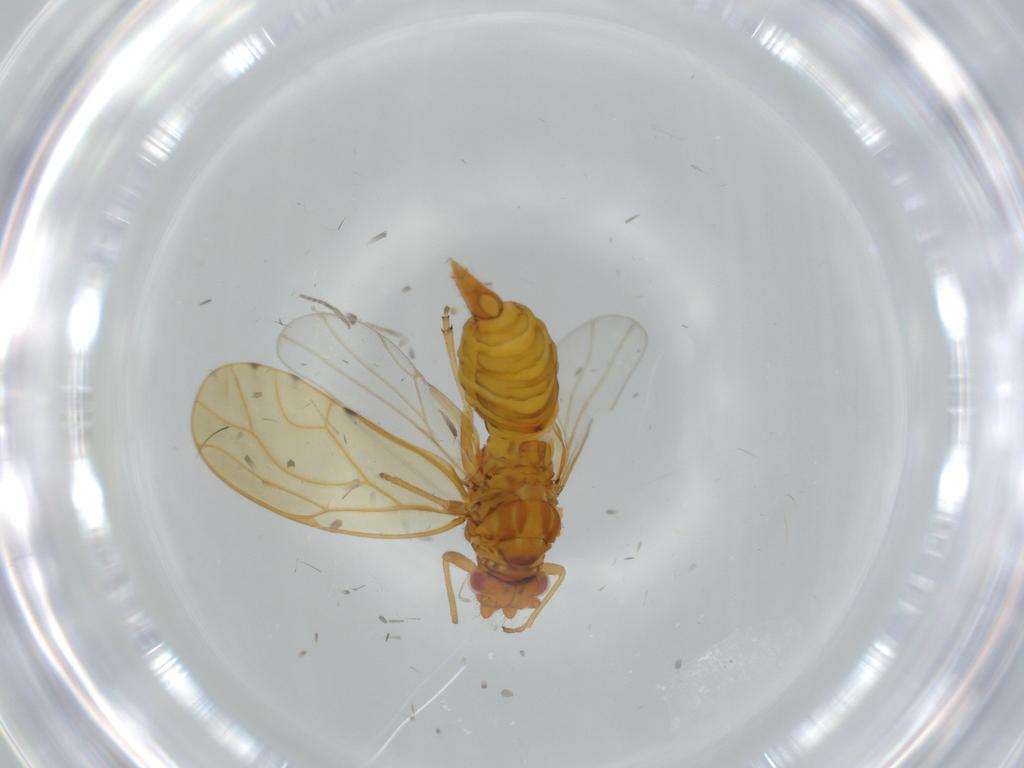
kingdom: Animalia
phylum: Arthropoda
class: Insecta
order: Hemiptera
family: Psylloidea_incertae_sedis
